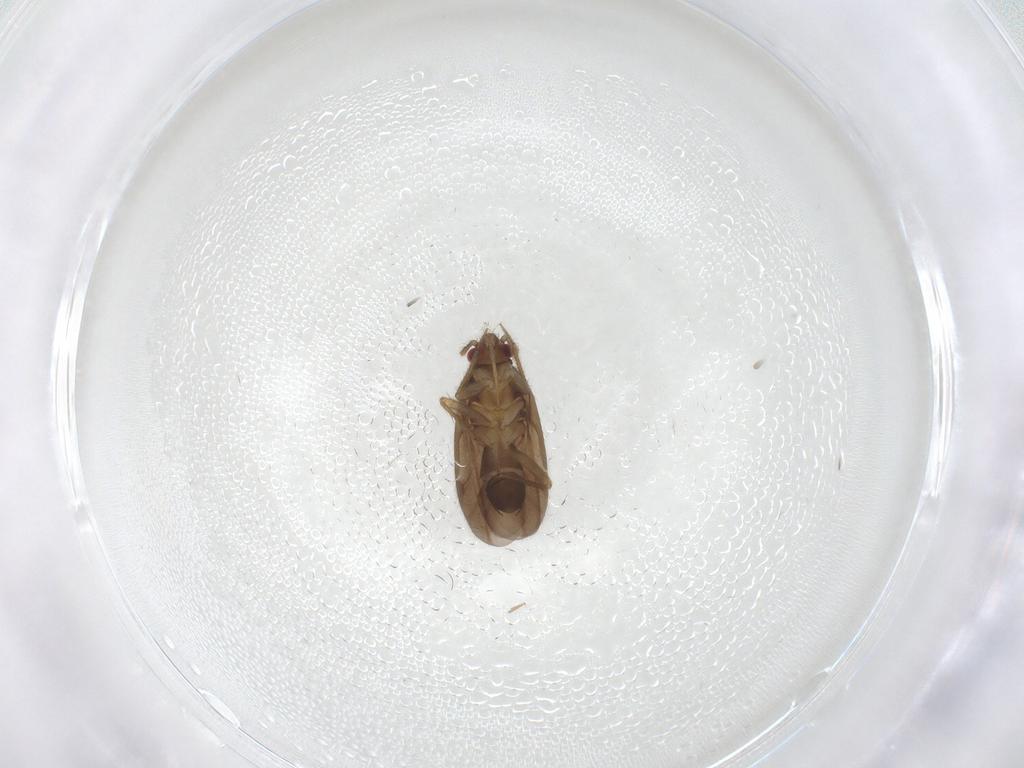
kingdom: Animalia
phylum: Arthropoda
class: Insecta
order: Hemiptera
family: Ceratocombidae
